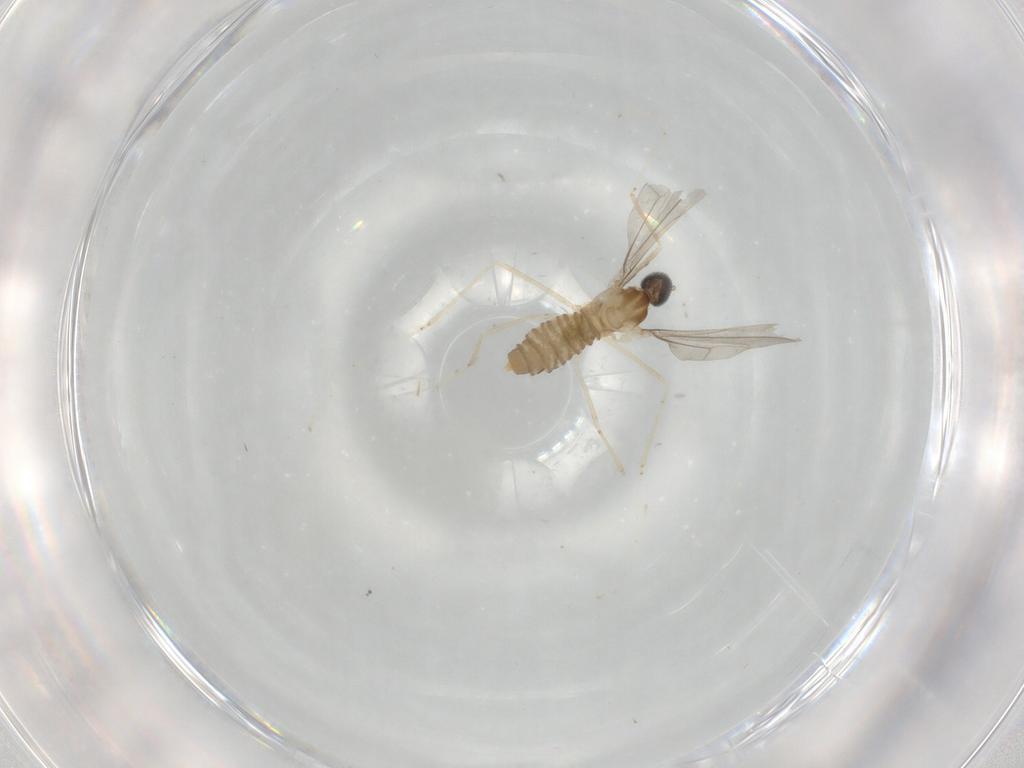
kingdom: Animalia
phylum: Arthropoda
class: Insecta
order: Diptera
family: Cecidomyiidae
